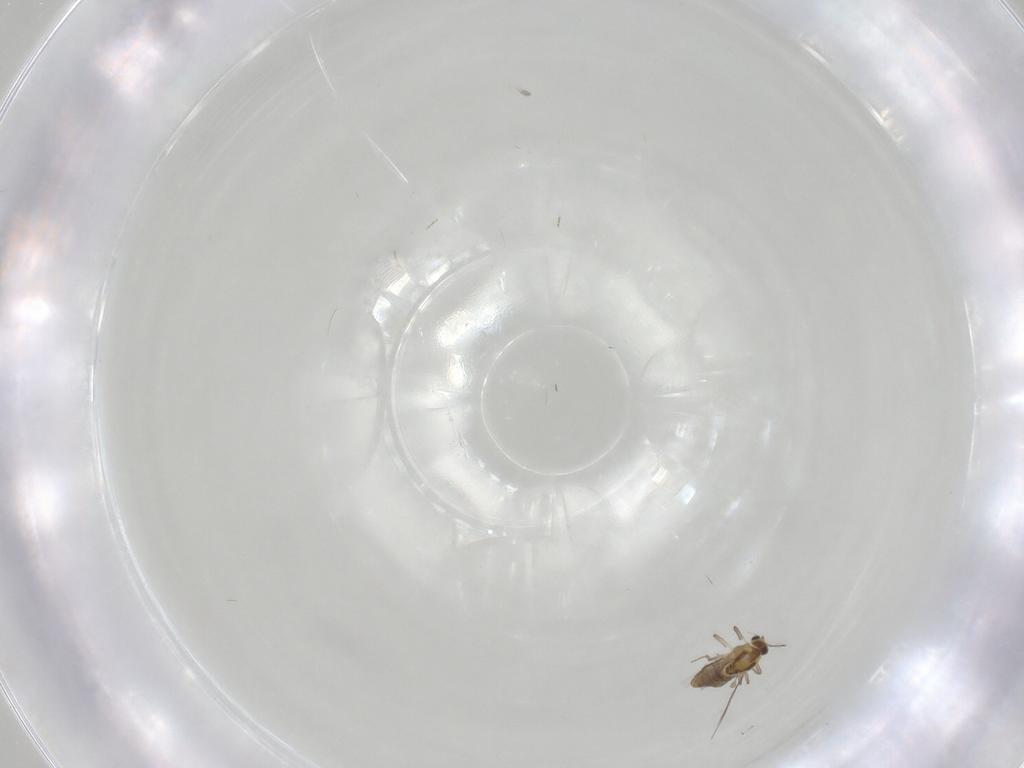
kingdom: Animalia
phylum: Arthropoda
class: Insecta
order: Diptera
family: Chironomidae
